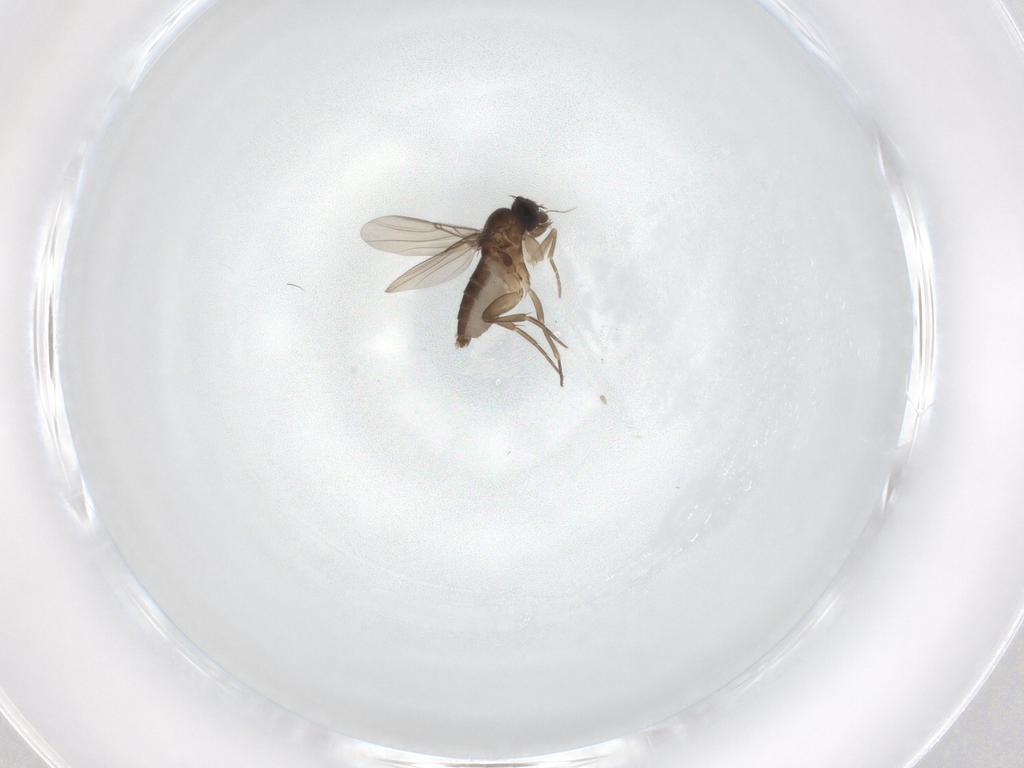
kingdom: Animalia
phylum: Arthropoda
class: Insecta
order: Diptera
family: Phoridae
